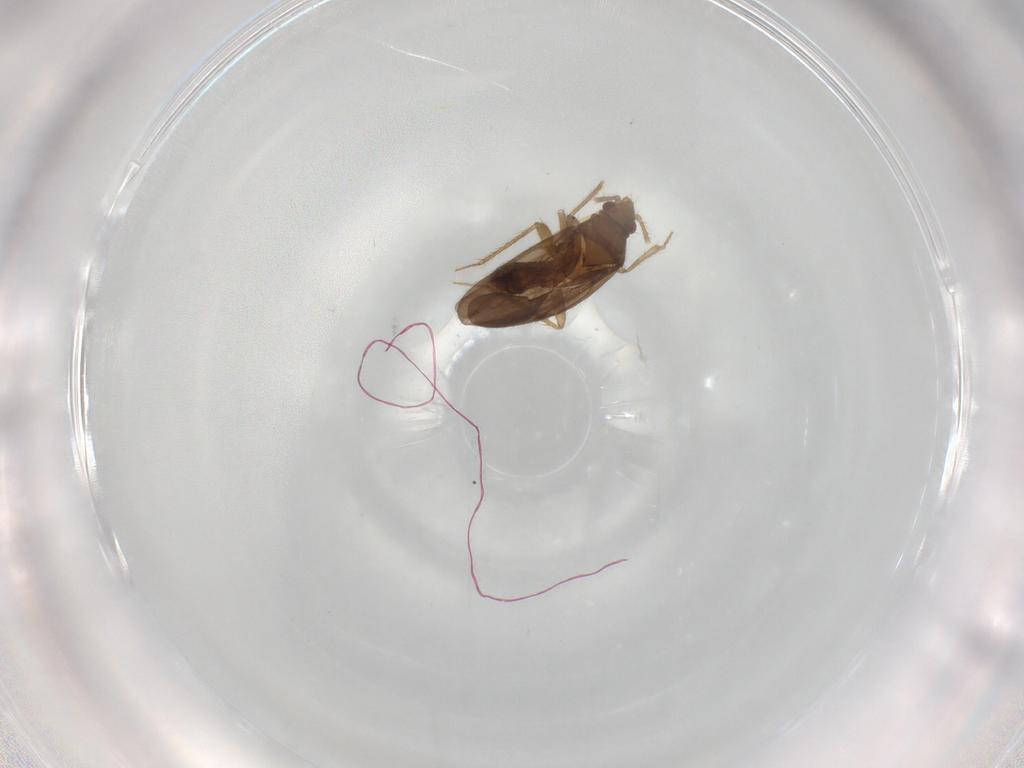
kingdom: Animalia
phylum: Arthropoda
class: Insecta
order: Hemiptera
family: Ceratocombidae
